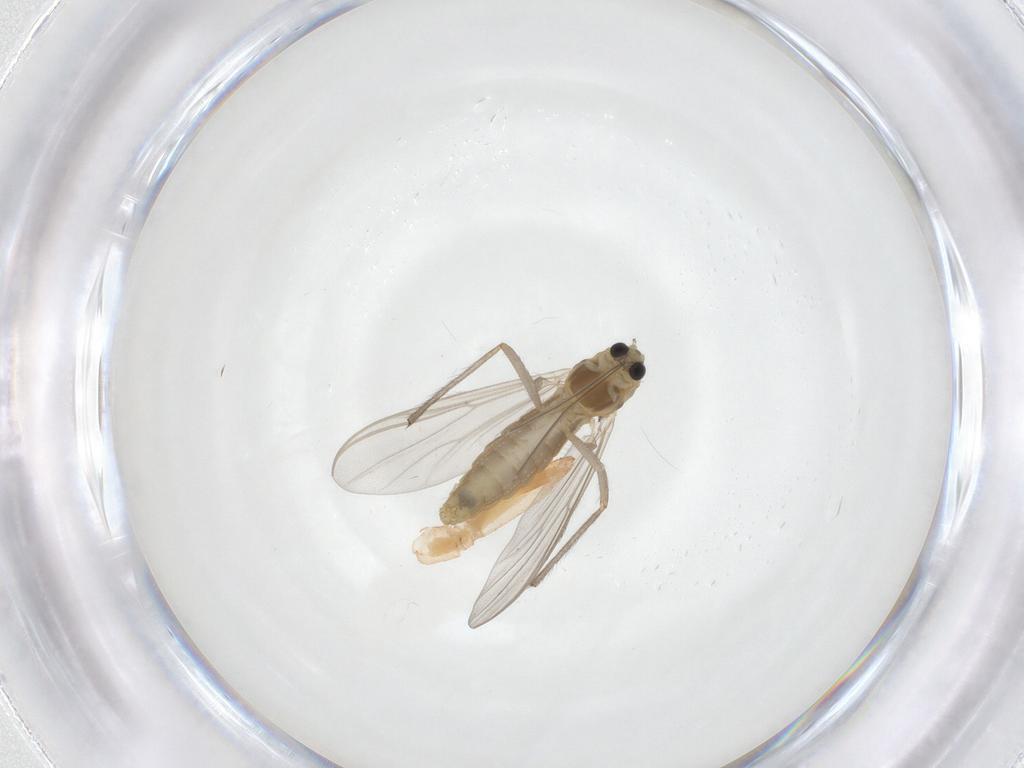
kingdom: Animalia
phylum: Arthropoda
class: Insecta
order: Diptera
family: Chironomidae
